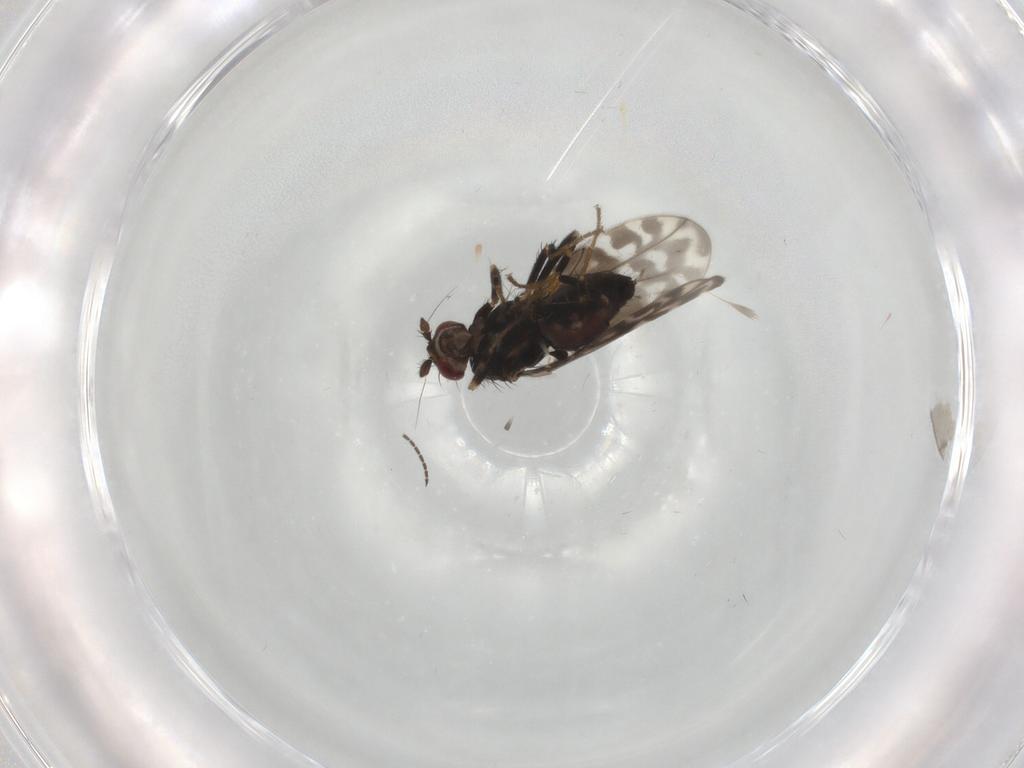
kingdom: Animalia
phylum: Arthropoda
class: Insecta
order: Diptera
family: Sphaeroceridae
